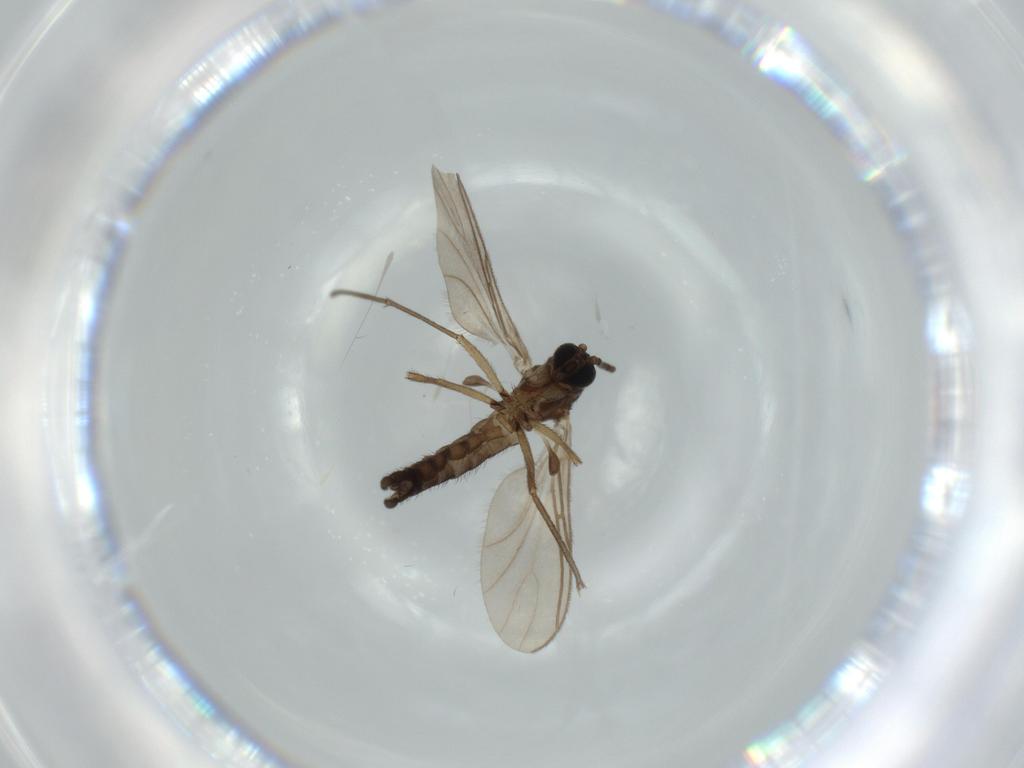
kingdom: Animalia
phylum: Arthropoda
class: Insecta
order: Diptera
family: Sciaridae
